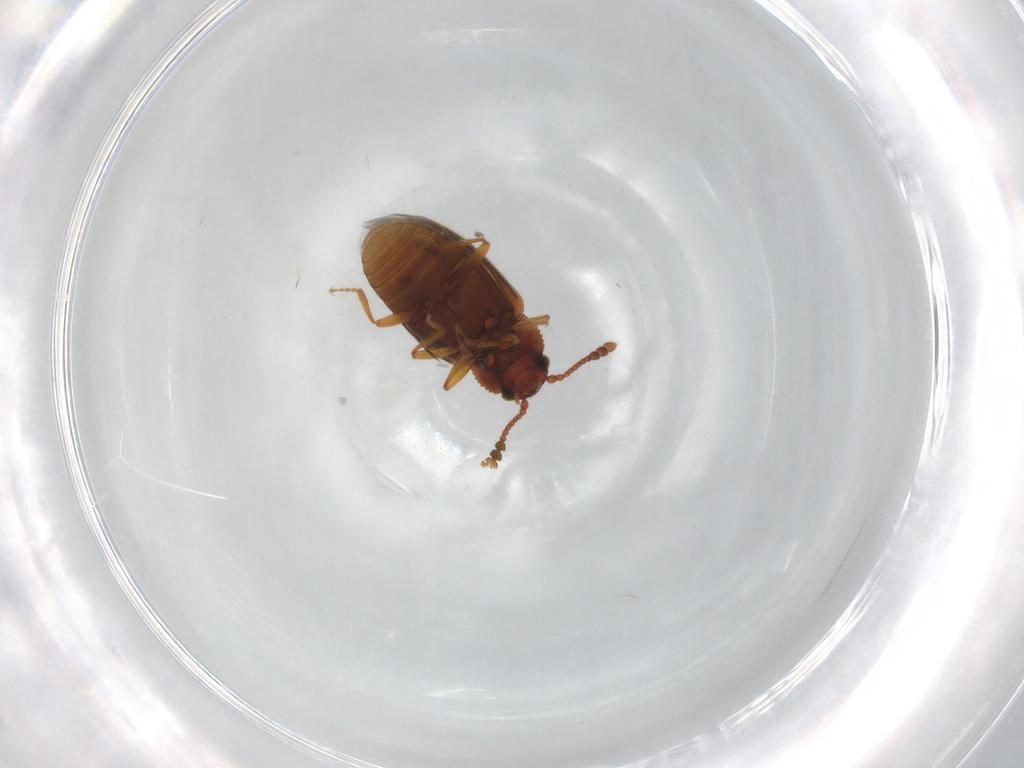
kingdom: Animalia
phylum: Arthropoda
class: Insecta
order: Coleoptera
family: Cryptophagidae
